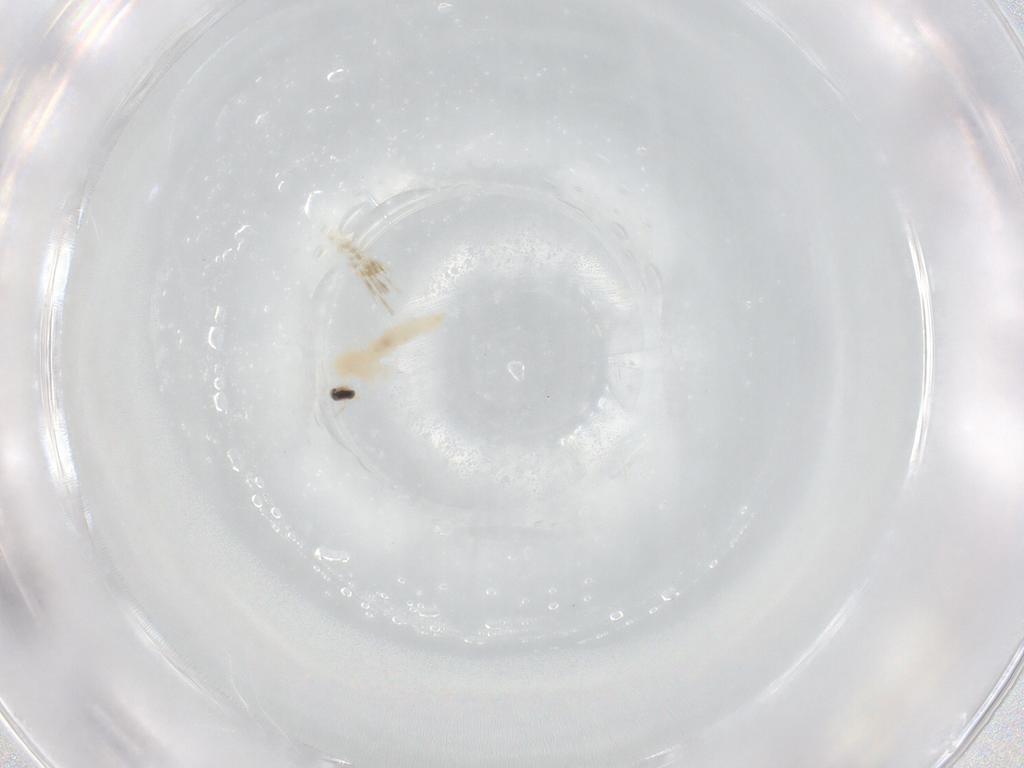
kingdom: Animalia
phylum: Arthropoda
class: Insecta
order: Diptera
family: Cecidomyiidae
